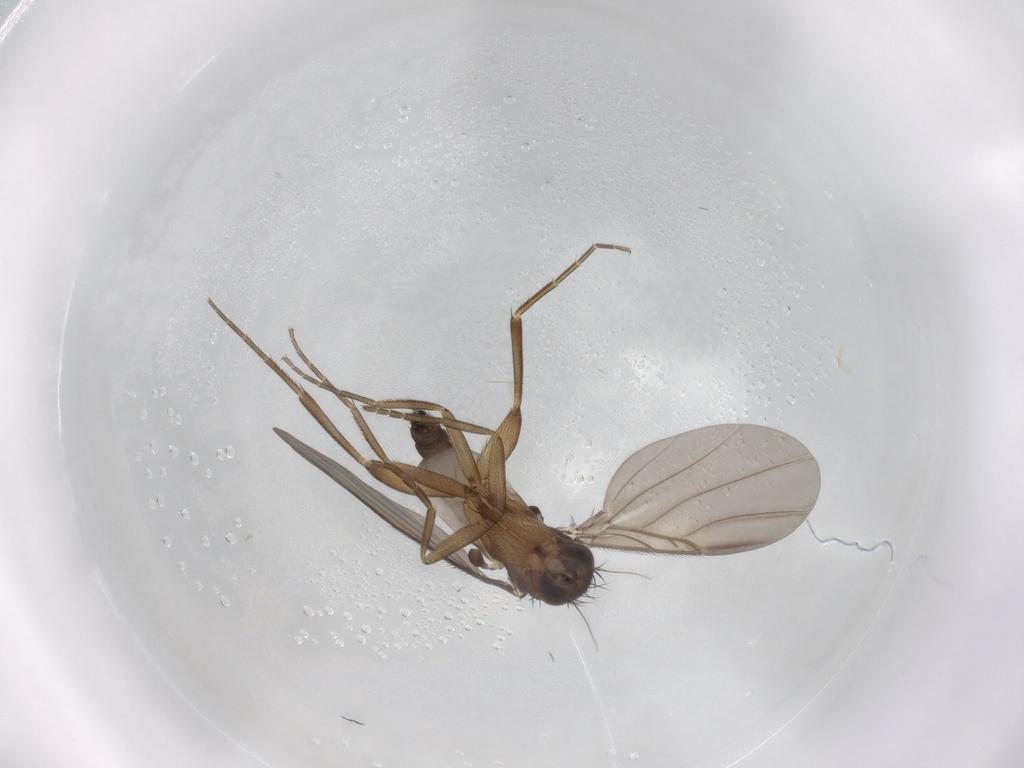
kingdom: Animalia
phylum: Arthropoda
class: Insecta
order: Diptera
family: Phoridae
